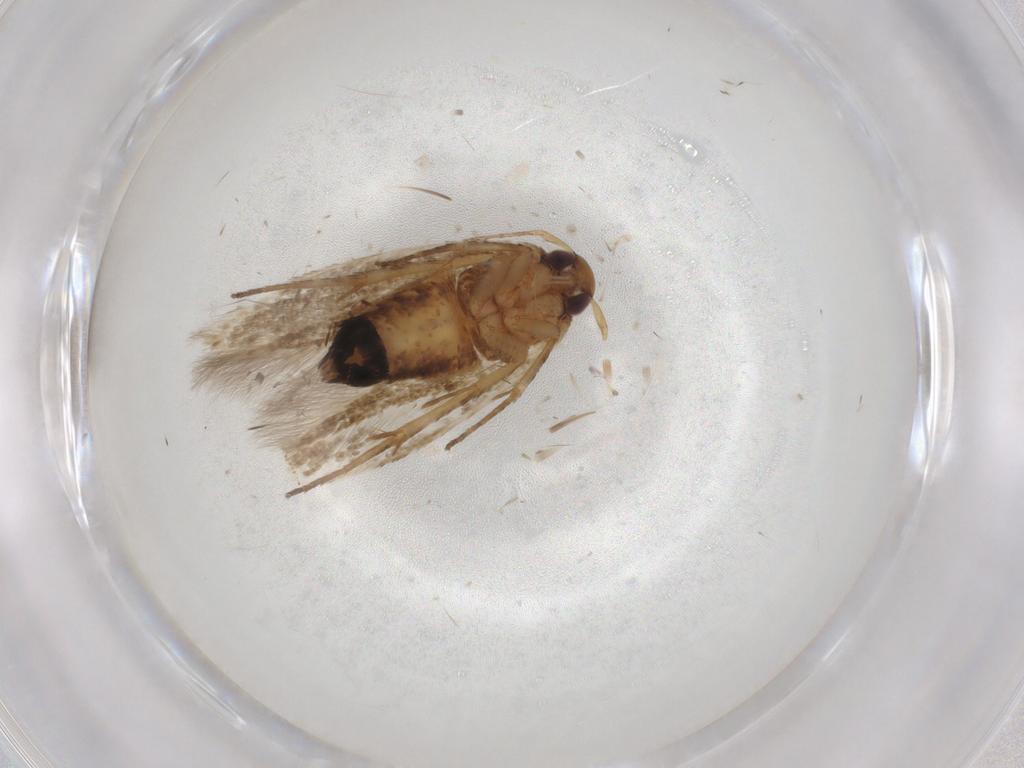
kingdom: Animalia
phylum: Arthropoda
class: Insecta
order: Lepidoptera
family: Cosmopterigidae
